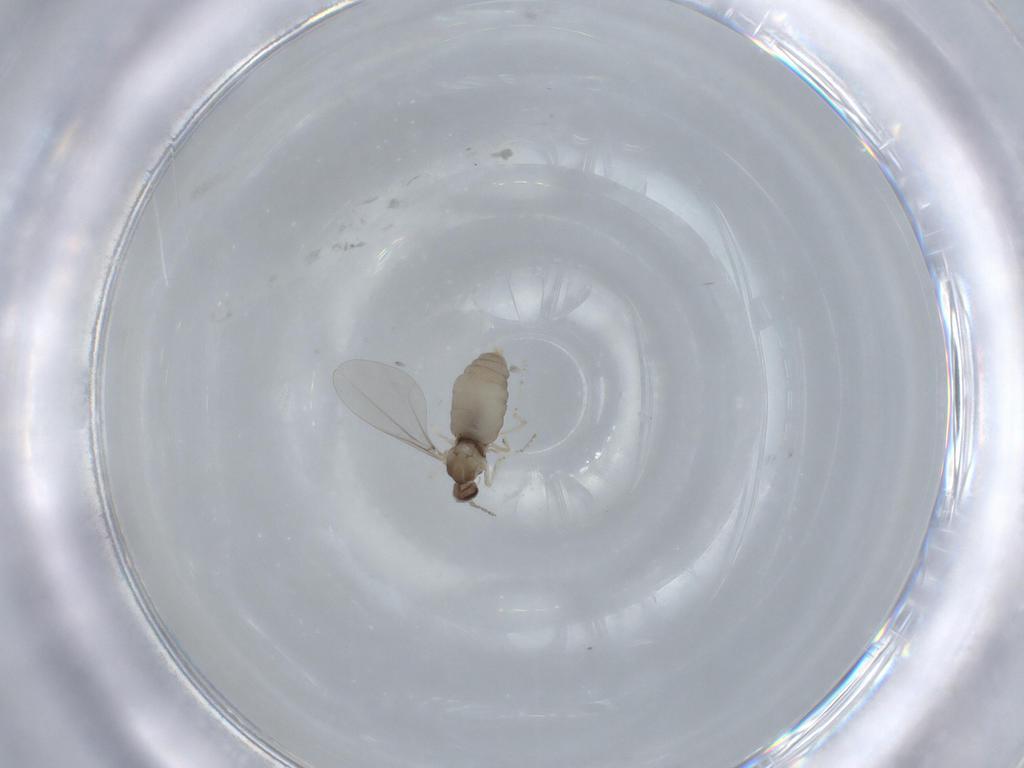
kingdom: Animalia
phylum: Arthropoda
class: Insecta
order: Diptera
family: Cecidomyiidae
